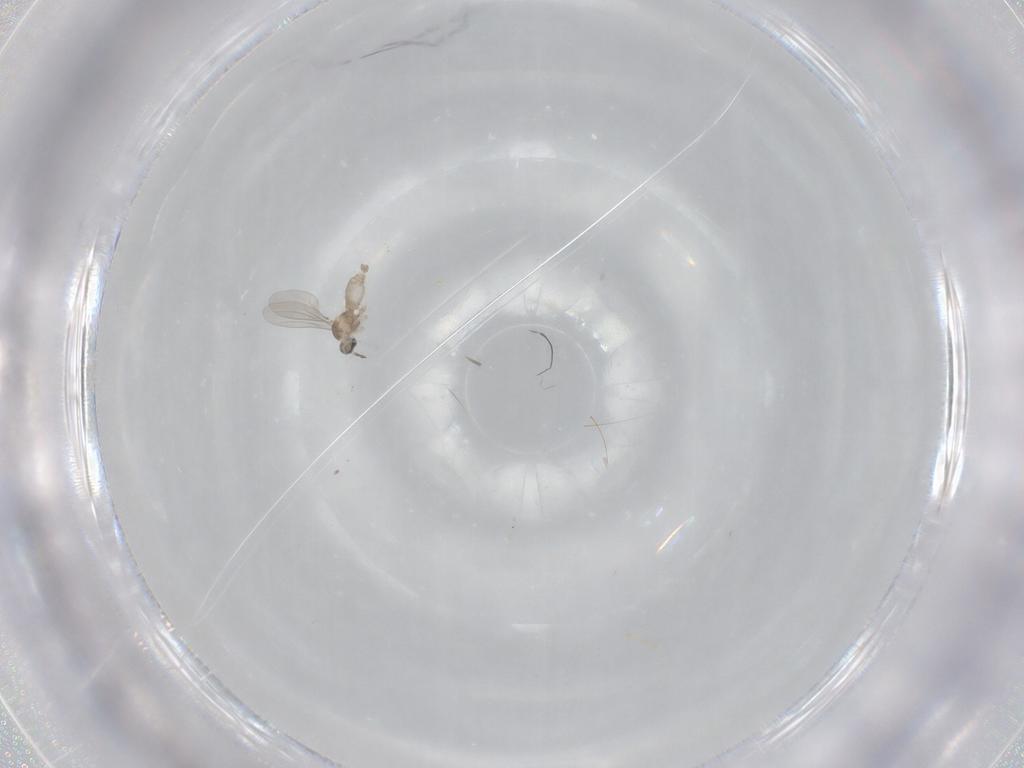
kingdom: Animalia
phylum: Arthropoda
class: Insecta
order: Diptera
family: Cecidomyiidae
